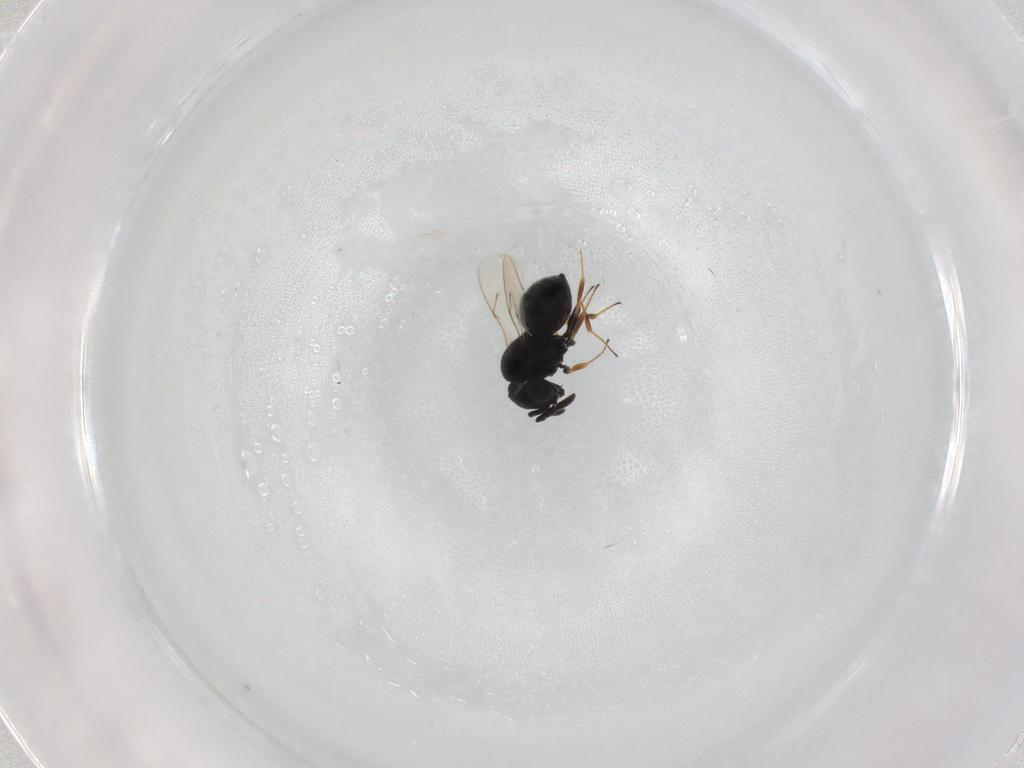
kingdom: Animalia
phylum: Arthropoda
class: Insecta
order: Hymenoptera
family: Scelionidae
